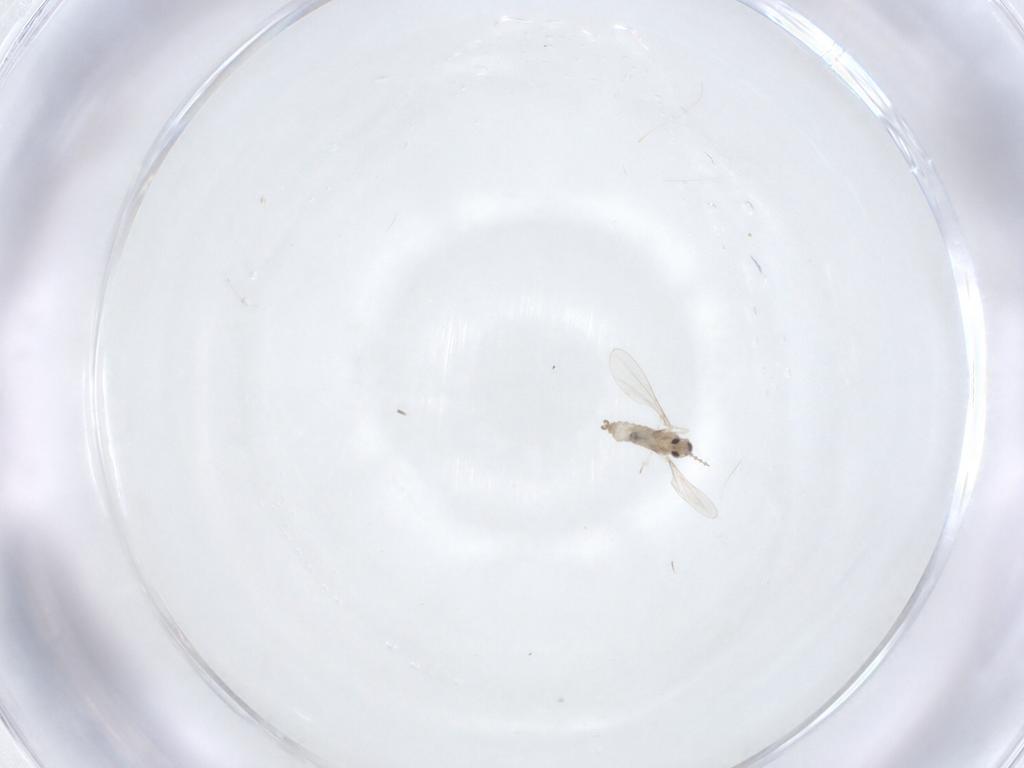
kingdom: Animalia
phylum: Arthropoda
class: Insecta
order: Diptera
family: Cecidomyiidae
